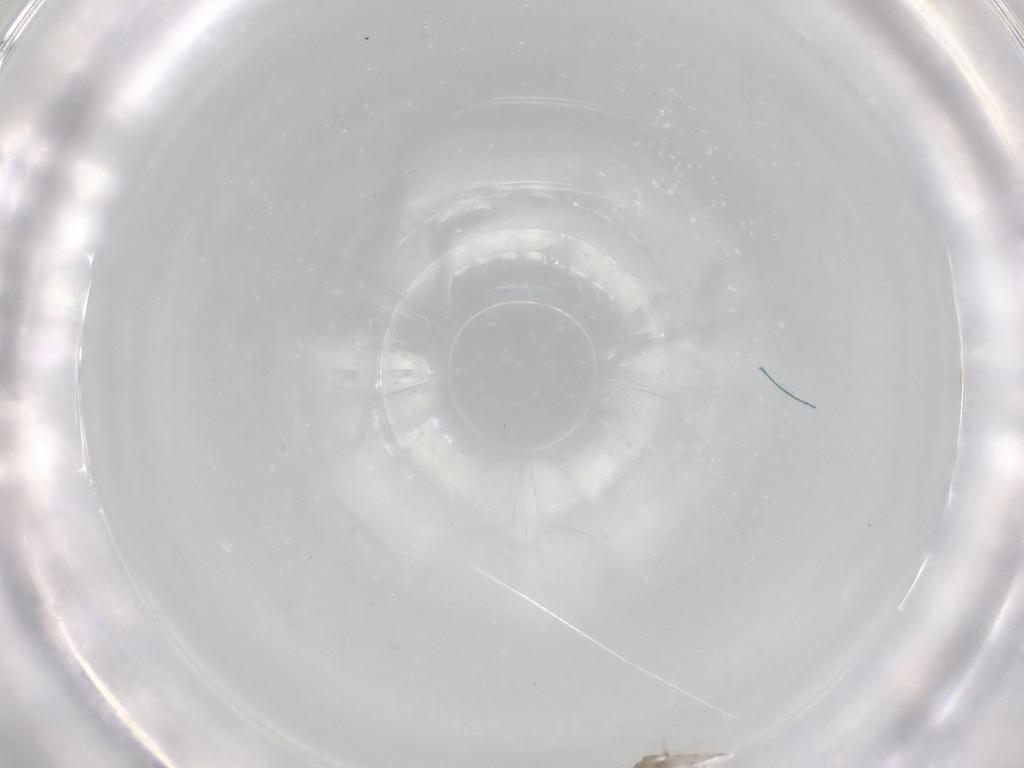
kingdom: Animalia
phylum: Arthropoda
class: Insecta
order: Diptera
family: Cecidomyiidae
